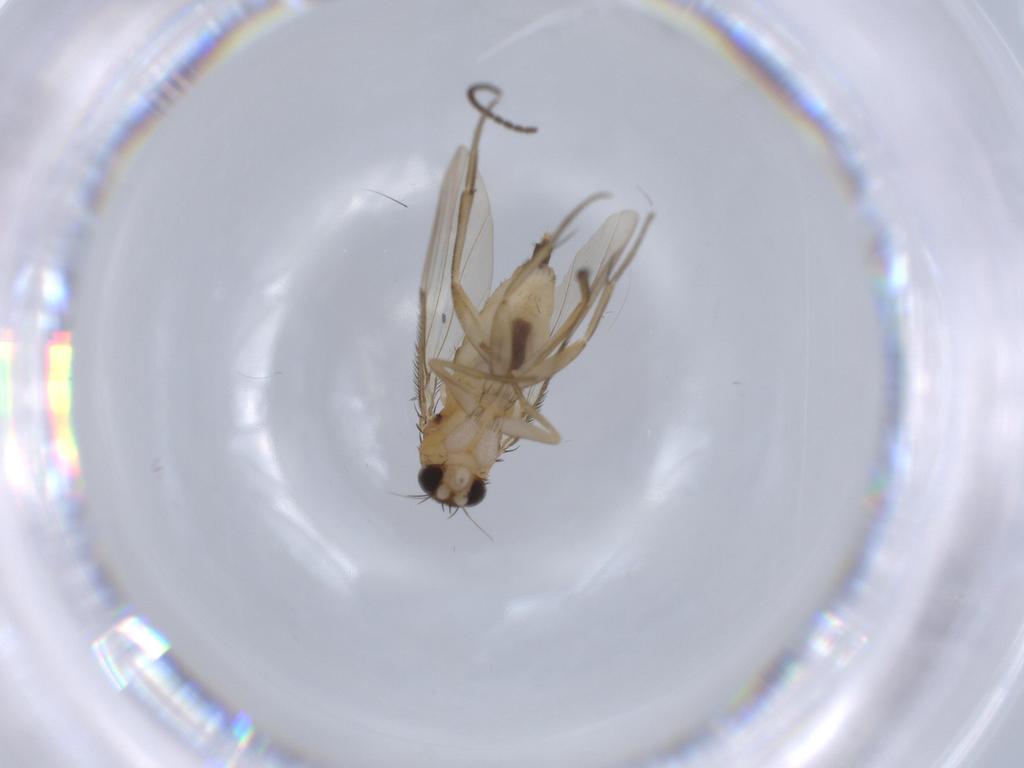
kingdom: Animalia
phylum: Arthropoda
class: Insecta
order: Diptera
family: Phoridae
